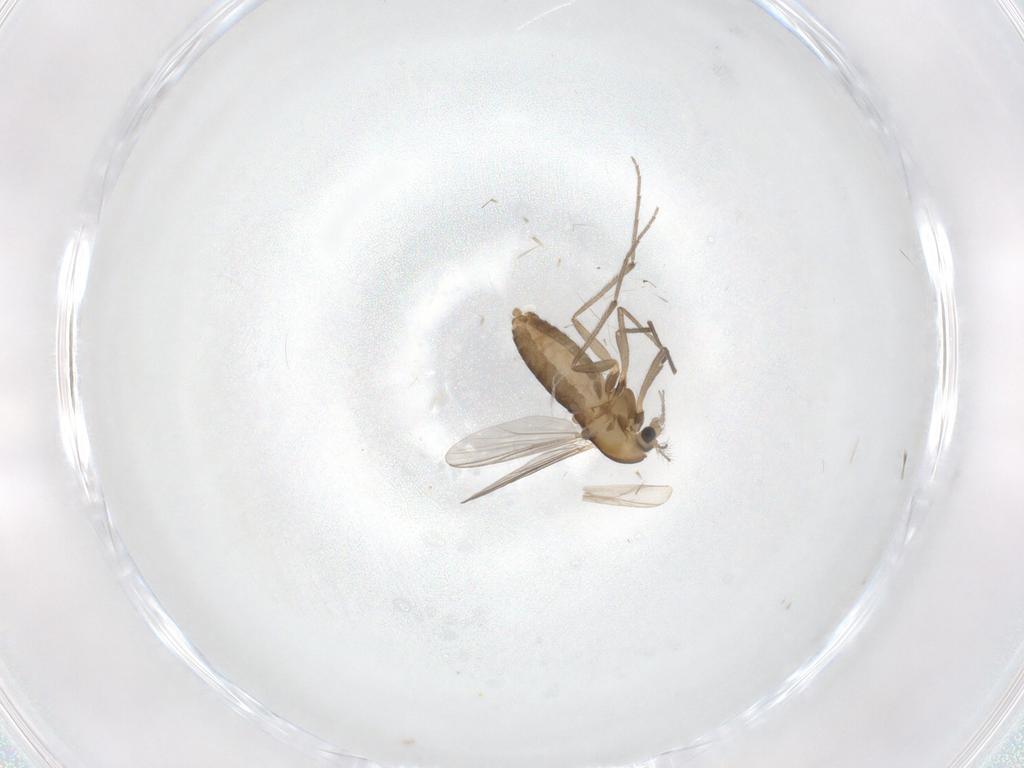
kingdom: Animalia
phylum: Arthropoda
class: Insecta
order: Diptera
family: Chironomidae
